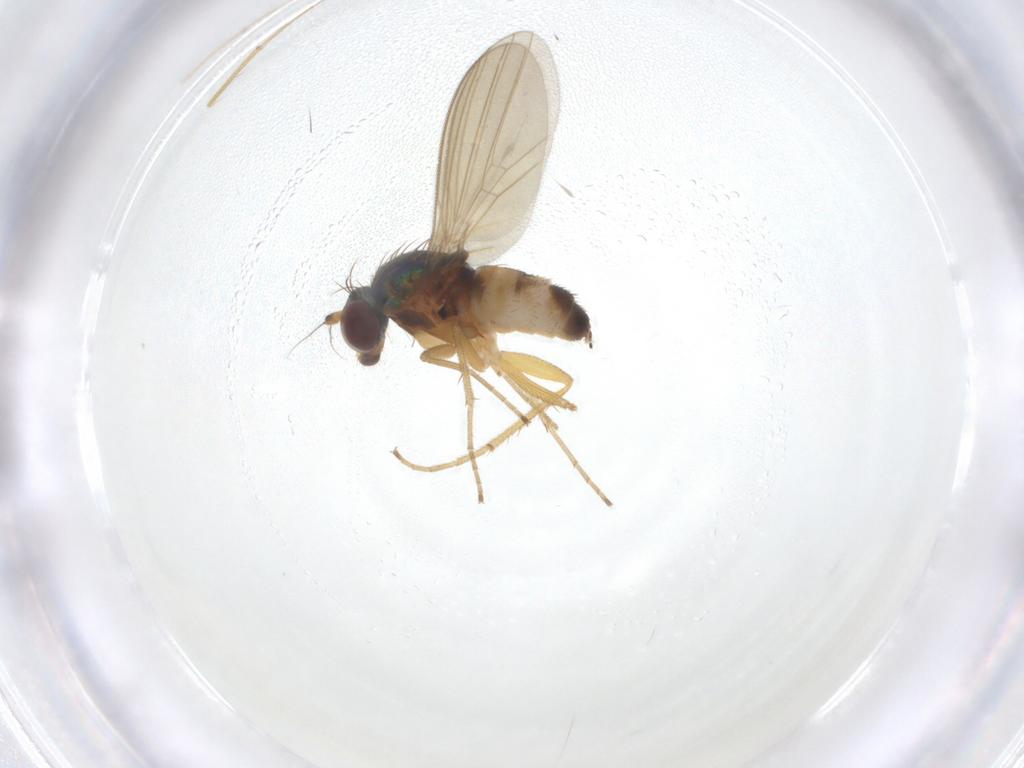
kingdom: Animalia
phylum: Arthropoda
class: Insecta
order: Diptera
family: Dolichopodidae
